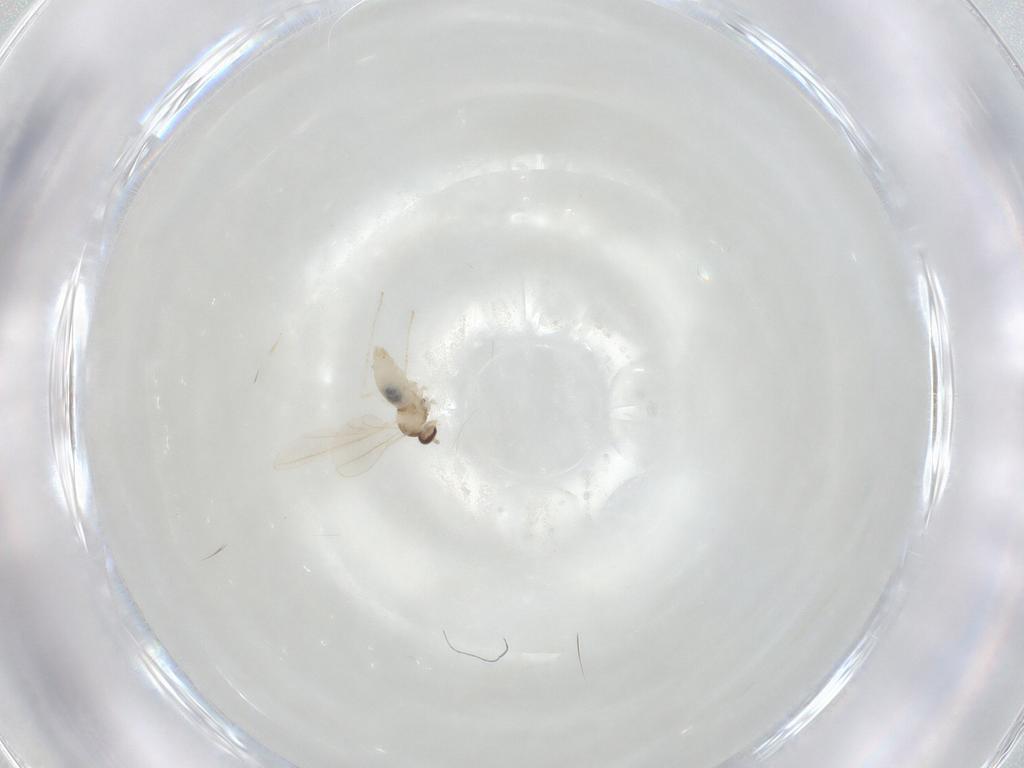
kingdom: Animalia
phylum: Arthropoda
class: Insecta
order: Diptera
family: Cecidomyiidae
